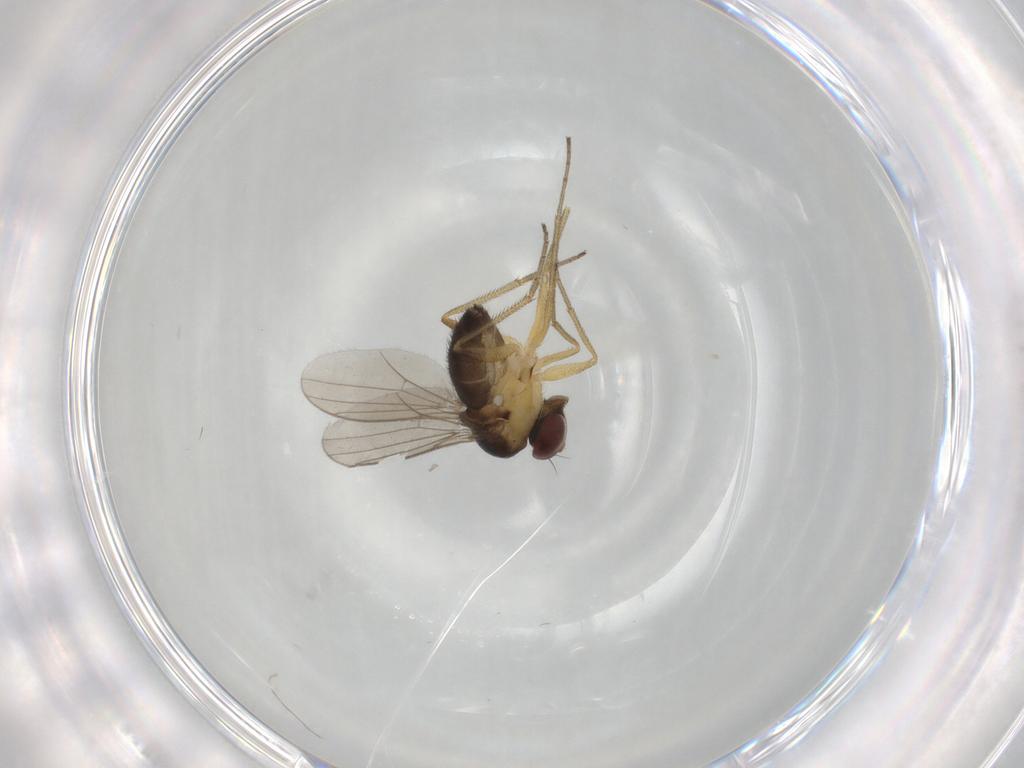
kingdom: Animalia
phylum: Arthropoda
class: Insecta
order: Diptera
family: Dolichopodidae
